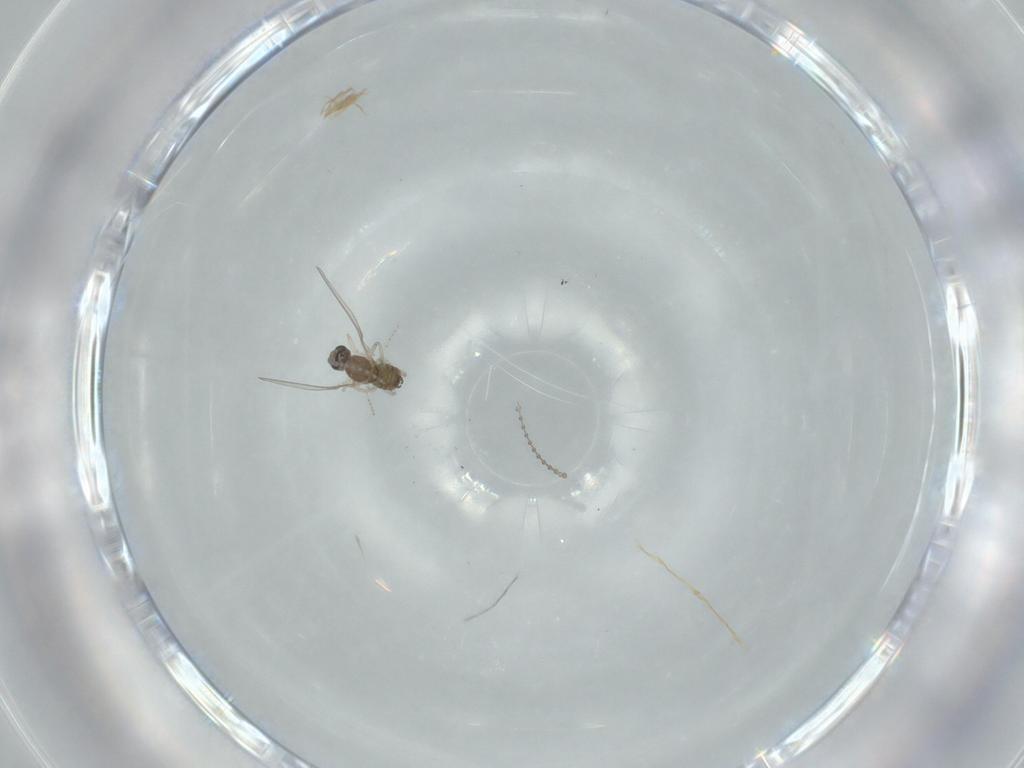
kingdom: Animalia
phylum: Arthropoda
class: Insecta
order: Diptera
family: Cecidomyiidae
